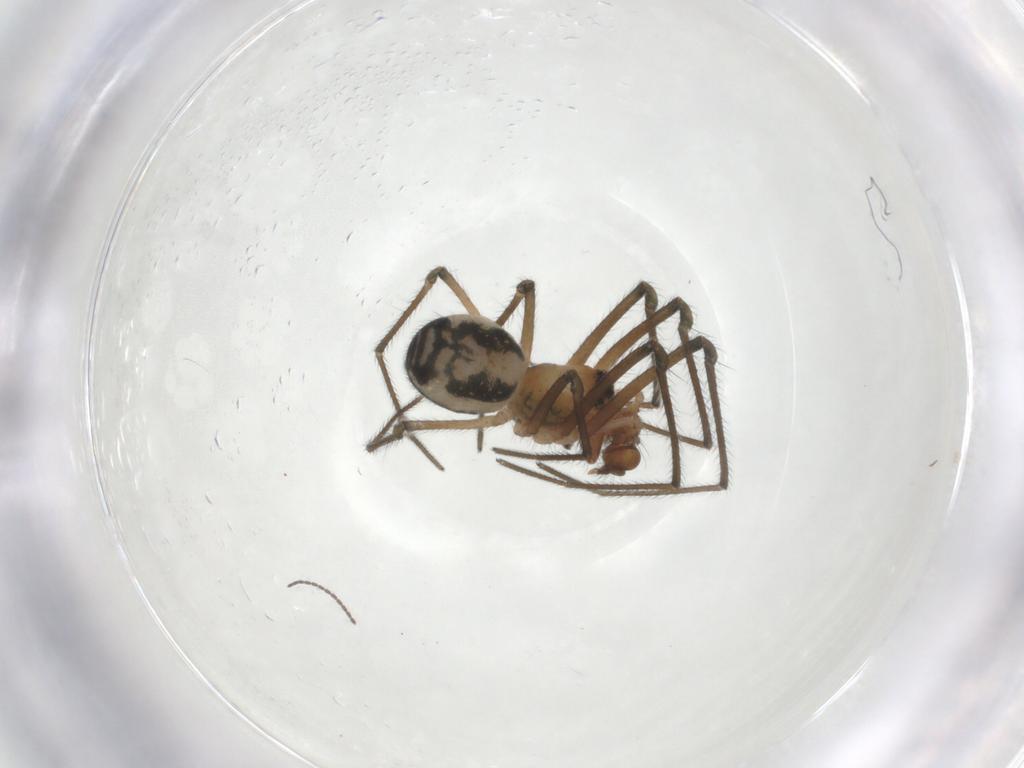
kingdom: Animalia
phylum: Arthropoda
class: Arachnida
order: Araneae
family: Tetragnathidae
